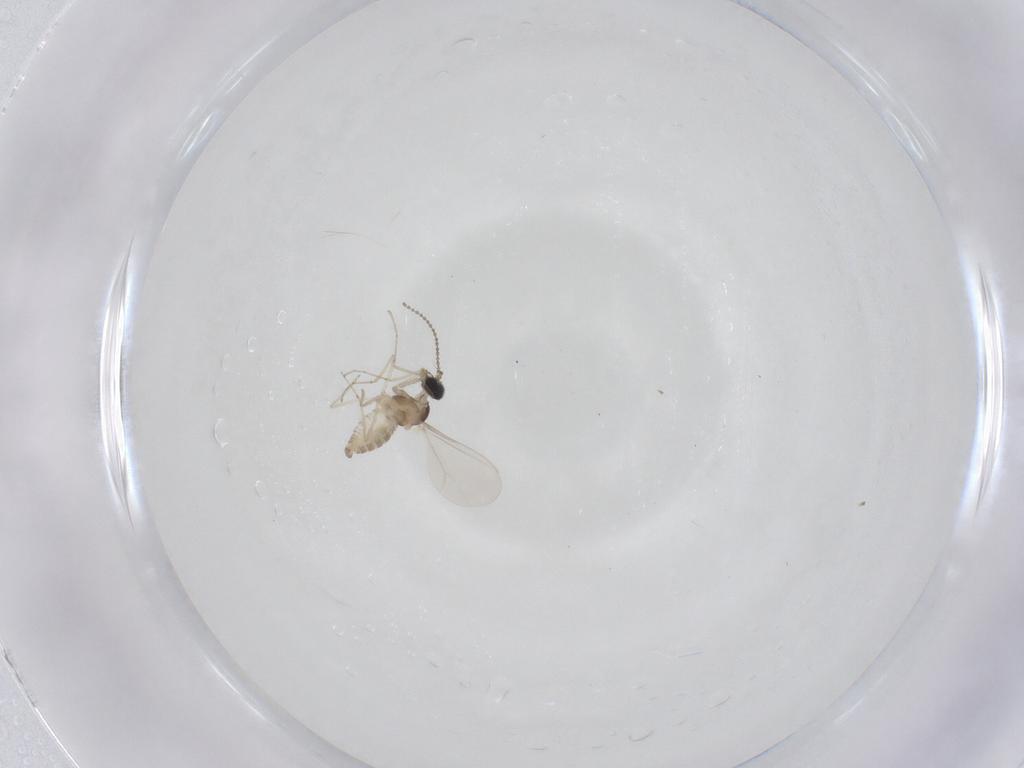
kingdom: Animalia
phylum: Arthropoda
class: Insecta
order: Diptera
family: Cecidomyiidae
